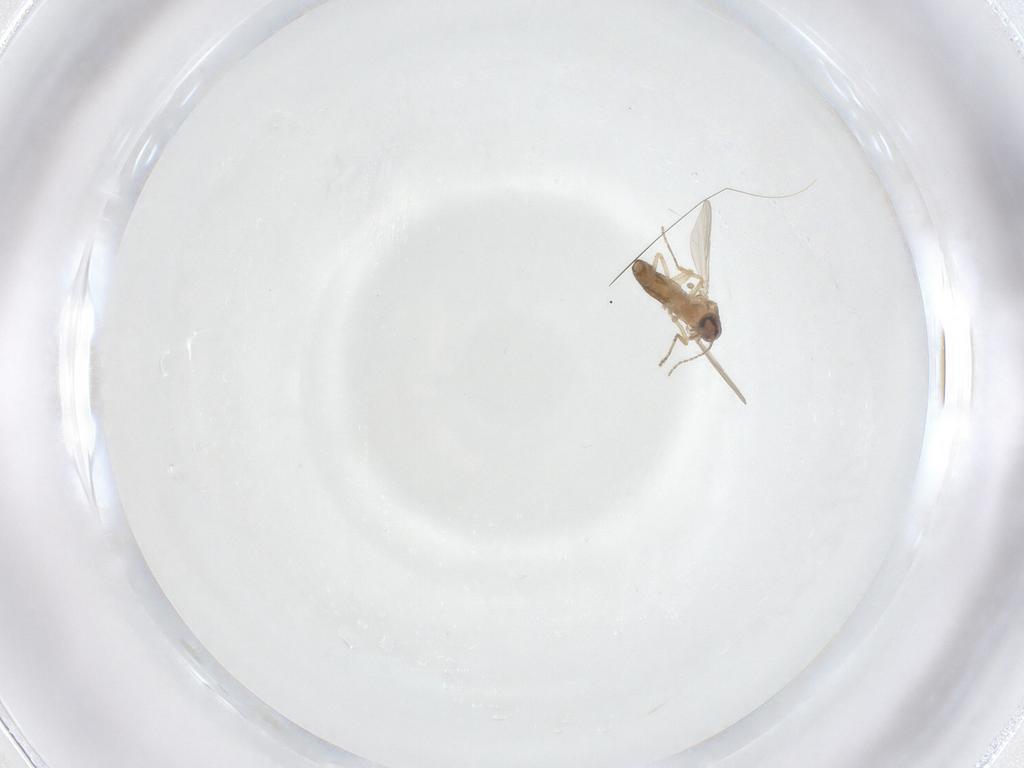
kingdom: Animalia
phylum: Arthropoda
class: Insecta
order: Diptera
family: Ceratopogonidae
